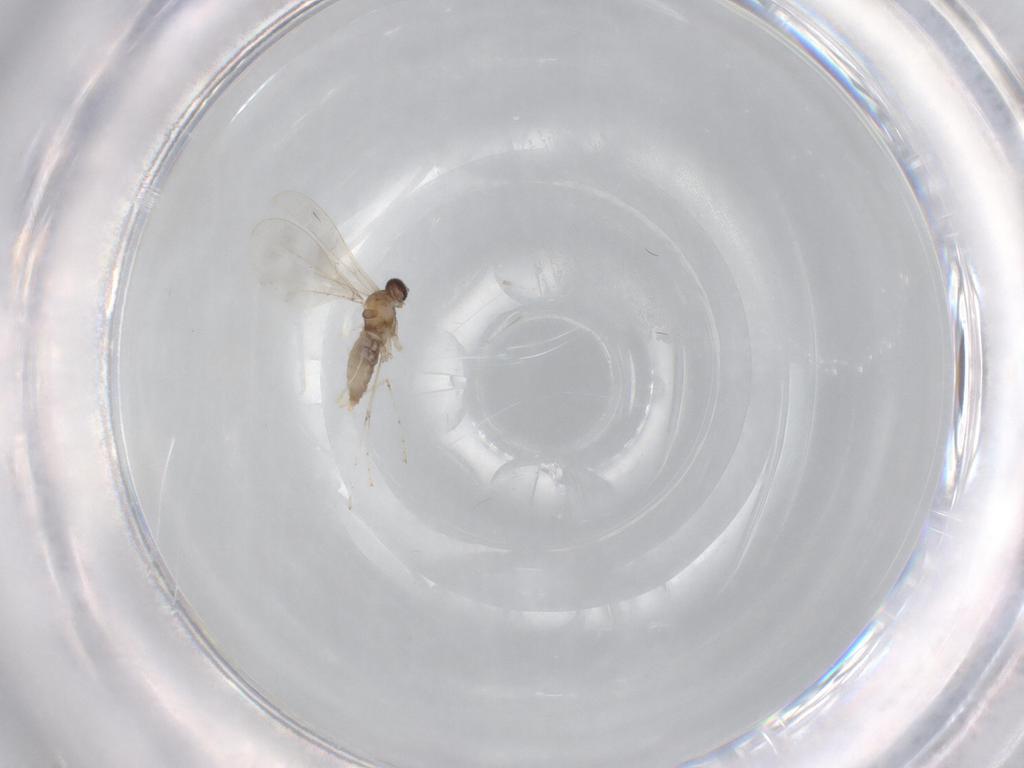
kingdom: Animalia
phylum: Arthropoda
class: Insecta
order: Diptera
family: Cecidomyiidae
